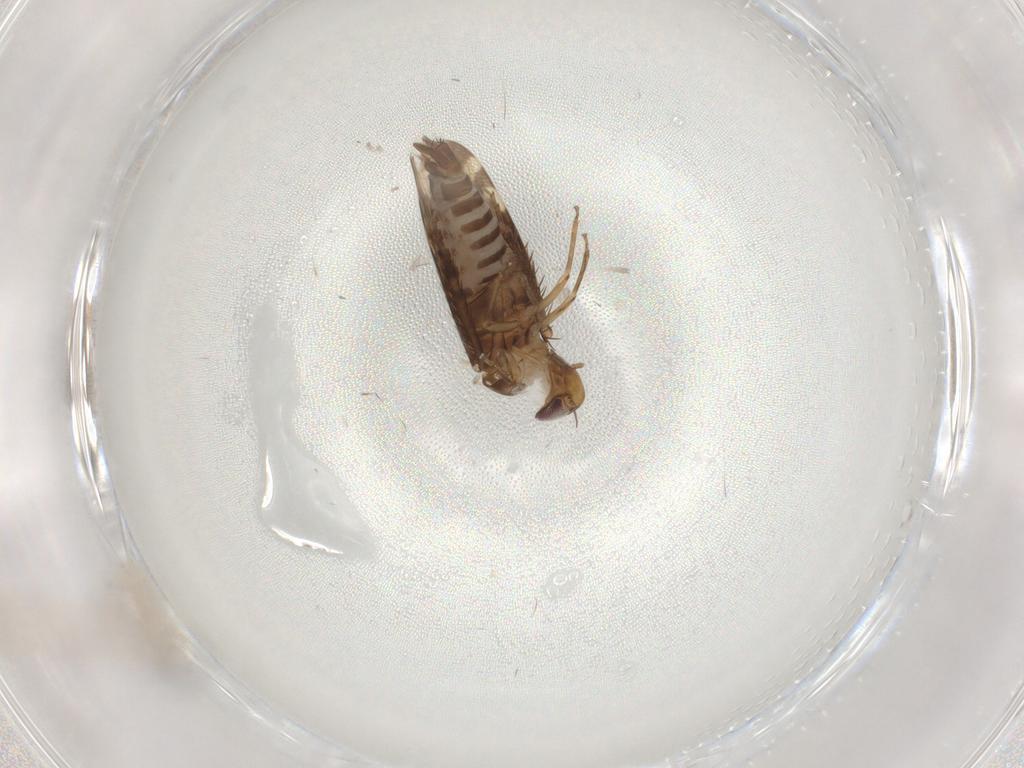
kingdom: Animalia
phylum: Arthropoda
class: Insecta
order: Hemiptera
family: Cicadellidae
